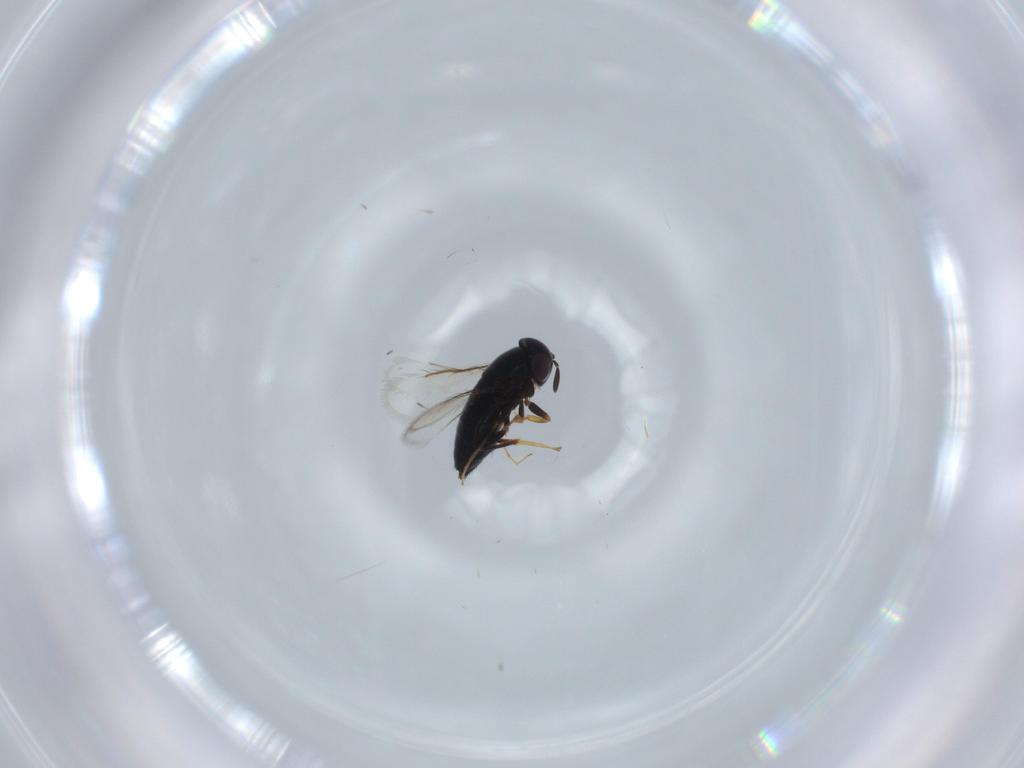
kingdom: Animalia
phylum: Arthropoda
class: Insecta
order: Hymenoptera
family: Signiphoridae
